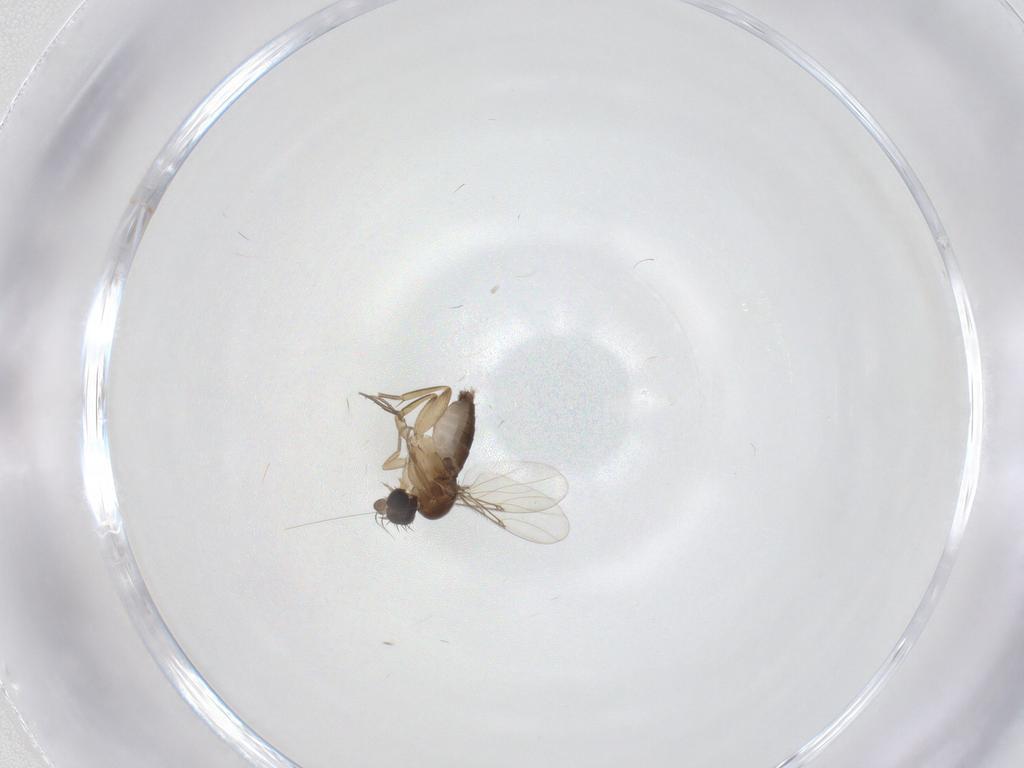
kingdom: Animalia
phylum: Arthropoda
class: Insecta
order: Diptera
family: Phoridae
